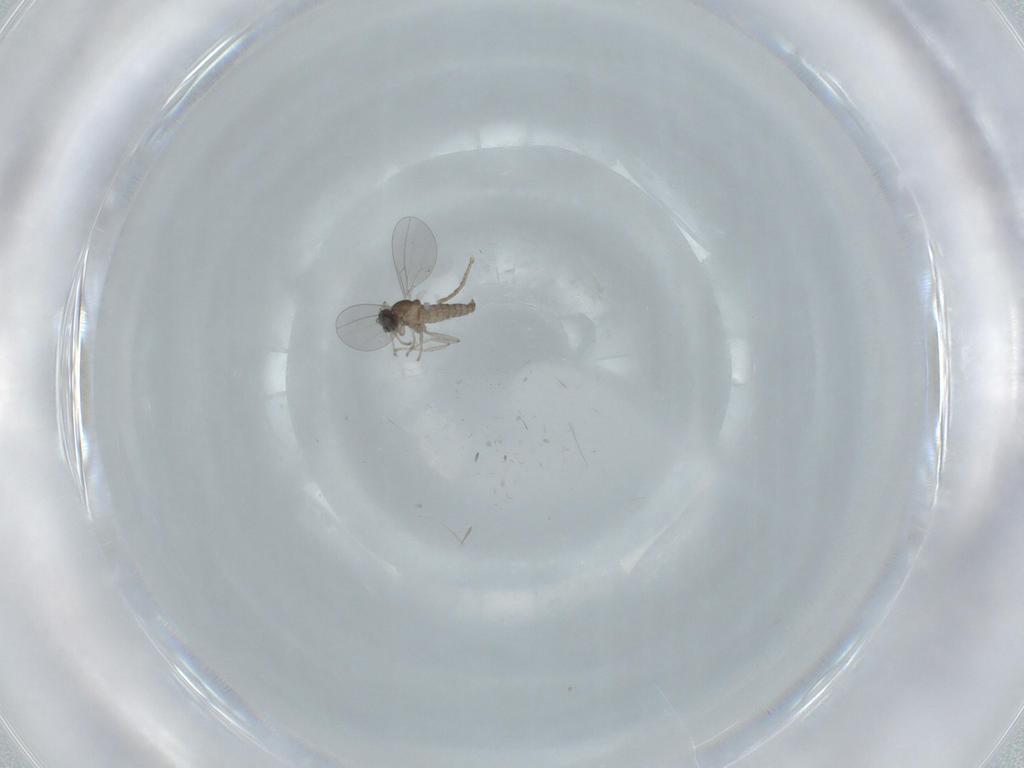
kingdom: Animalia
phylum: Arthropoda
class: Insecta
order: Diptera
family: Cecidomyiidae
